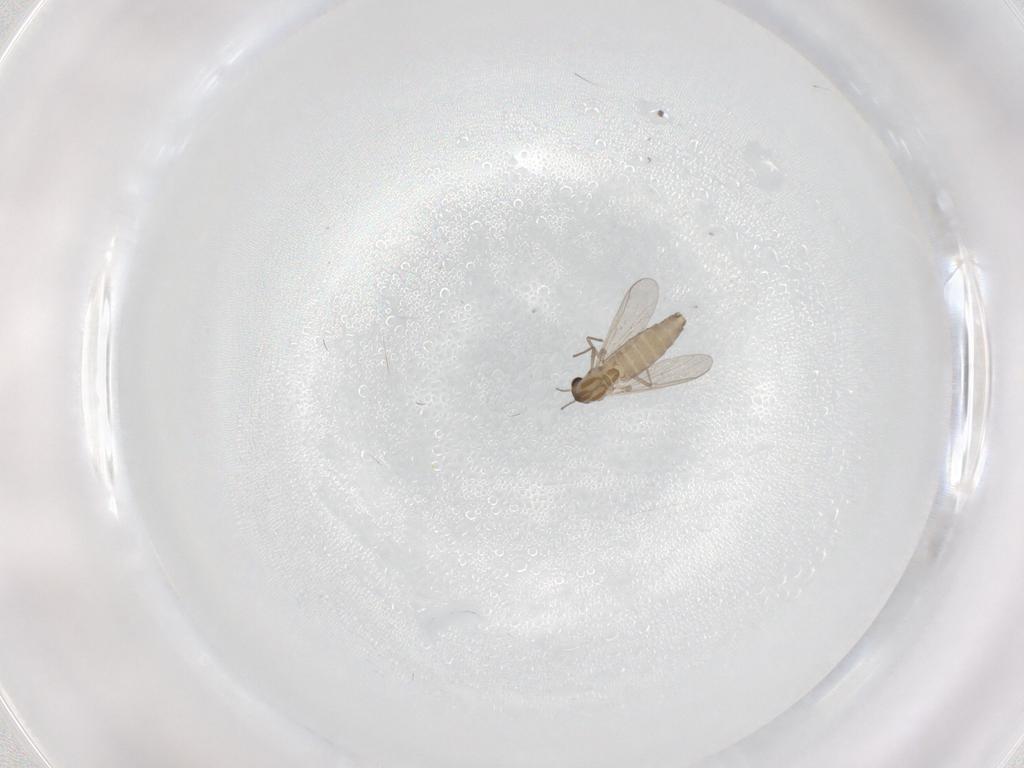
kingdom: Animalia
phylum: Arthropoda
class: Insecta
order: Diptera
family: Chironomidae
